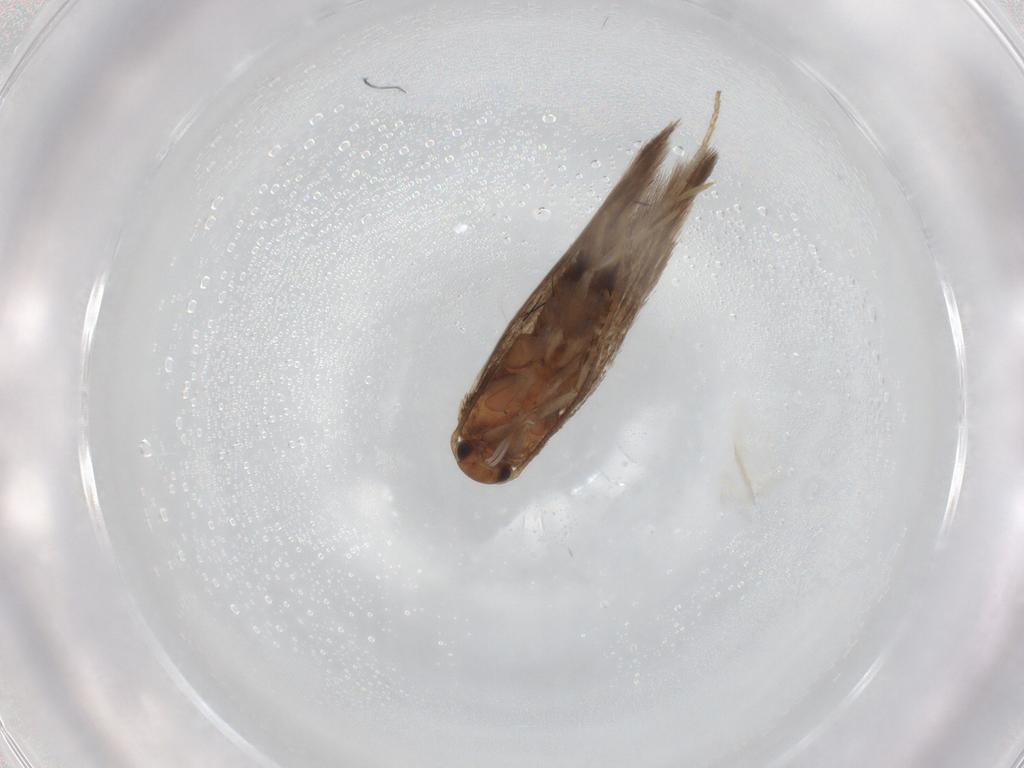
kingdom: Animalia
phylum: Arthropoda
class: Insecta
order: Lepidoptera
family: Elachistidae
